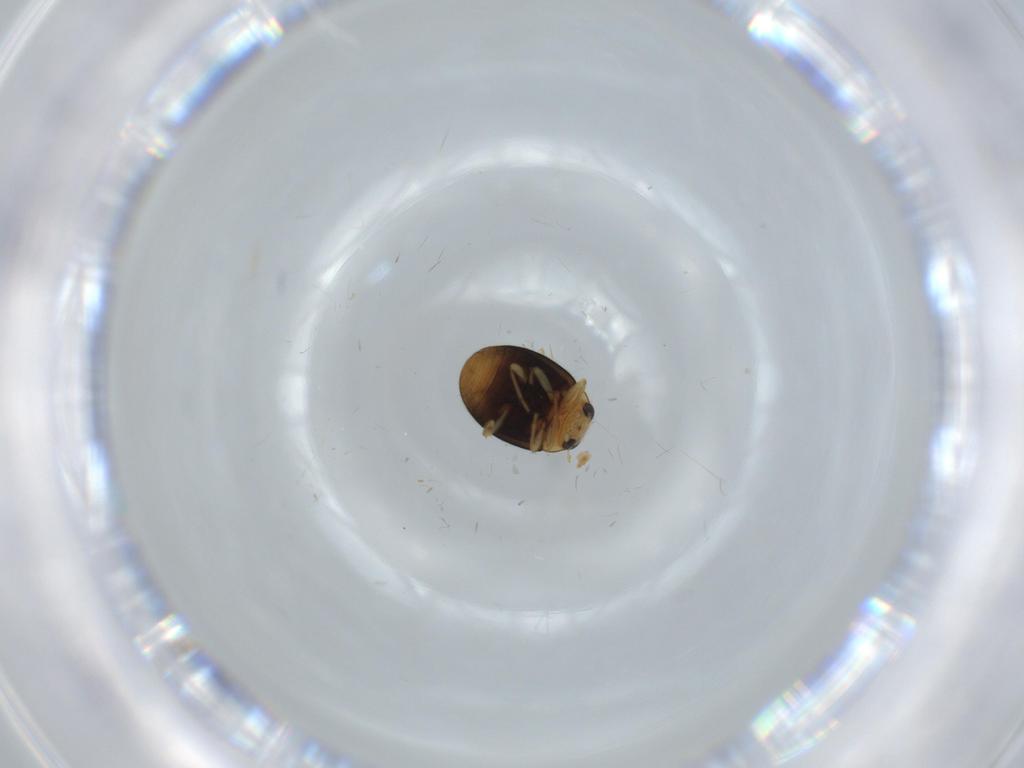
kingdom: Animalia
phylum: Arthropoda
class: Insecta
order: Coleoptera
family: Coccinellidae
